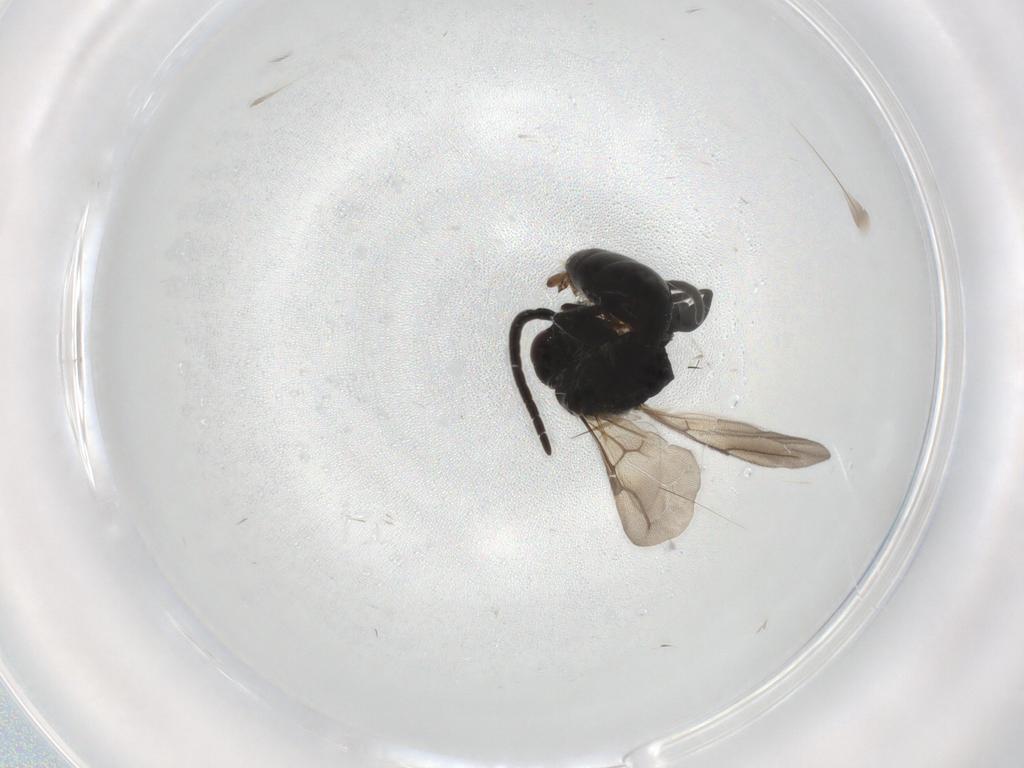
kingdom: Animalia
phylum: Arthropoda
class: Insecta
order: Hymenoptera
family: Bethylidae
